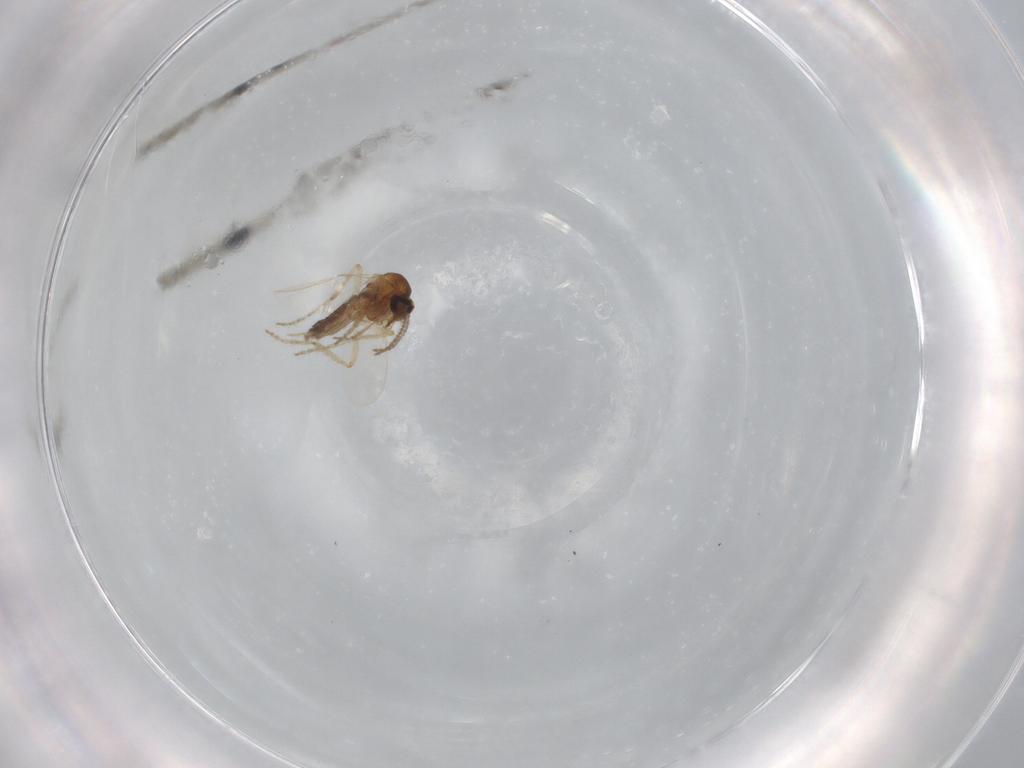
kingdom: Animalia
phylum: Arthropoda
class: Insecta
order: Diptera
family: Ceratopogonidae
